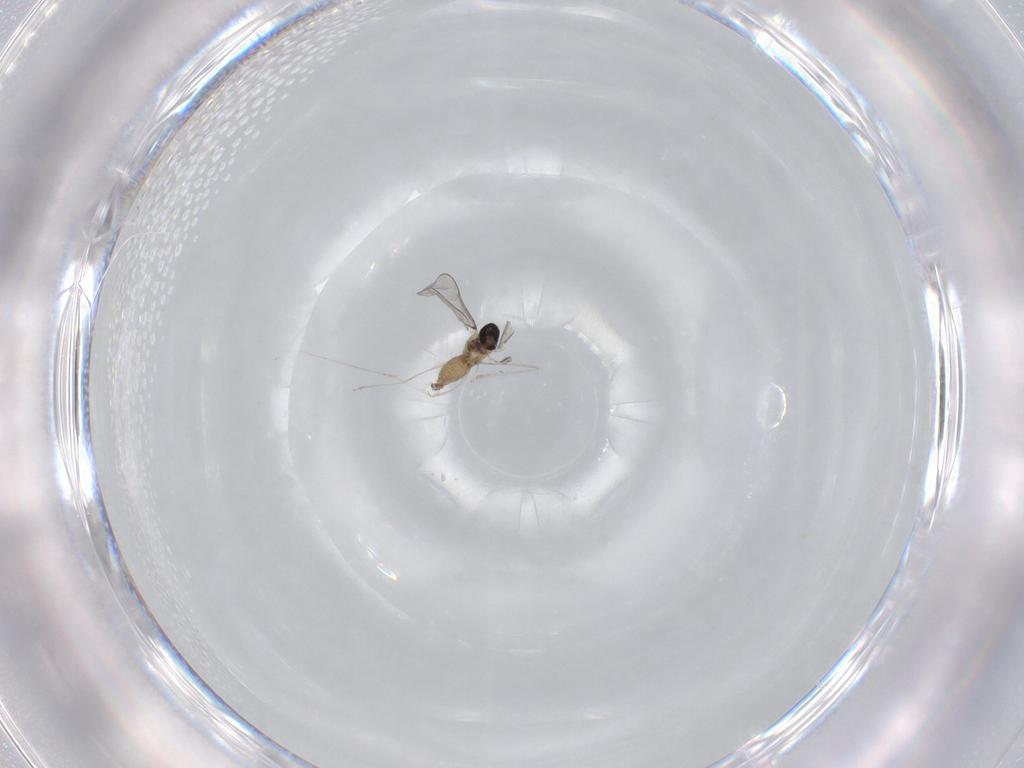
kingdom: Animalia
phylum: Arthropoda
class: Insecta
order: Diptera
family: Cecidomyiidae
